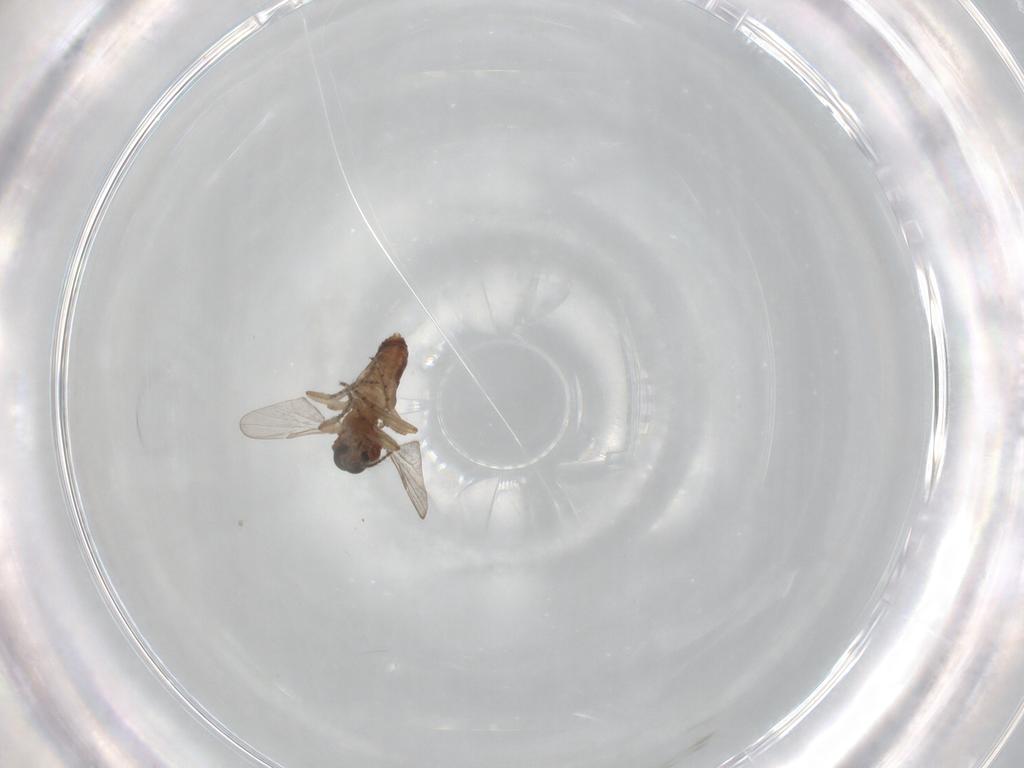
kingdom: Animalia
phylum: Arthropoda
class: Insecta
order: Diptera
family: Ceratopogonidae
